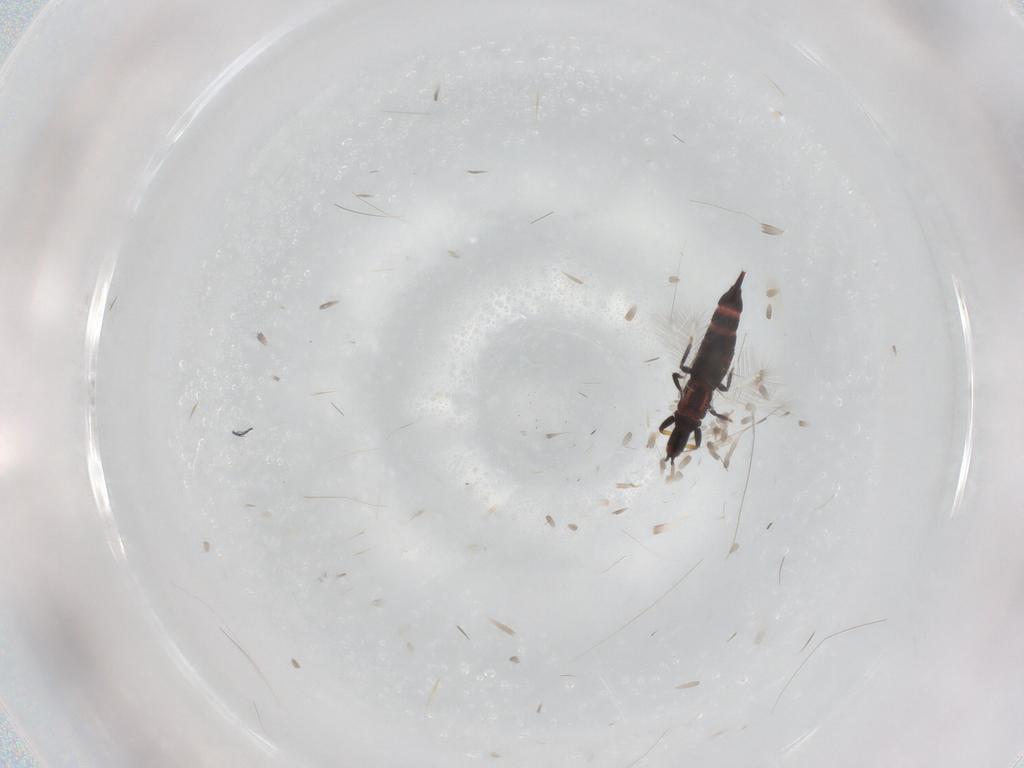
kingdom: Animalia
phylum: Arthropoda
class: Insecta
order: Thysanoptera
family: Phlaeothripidae
